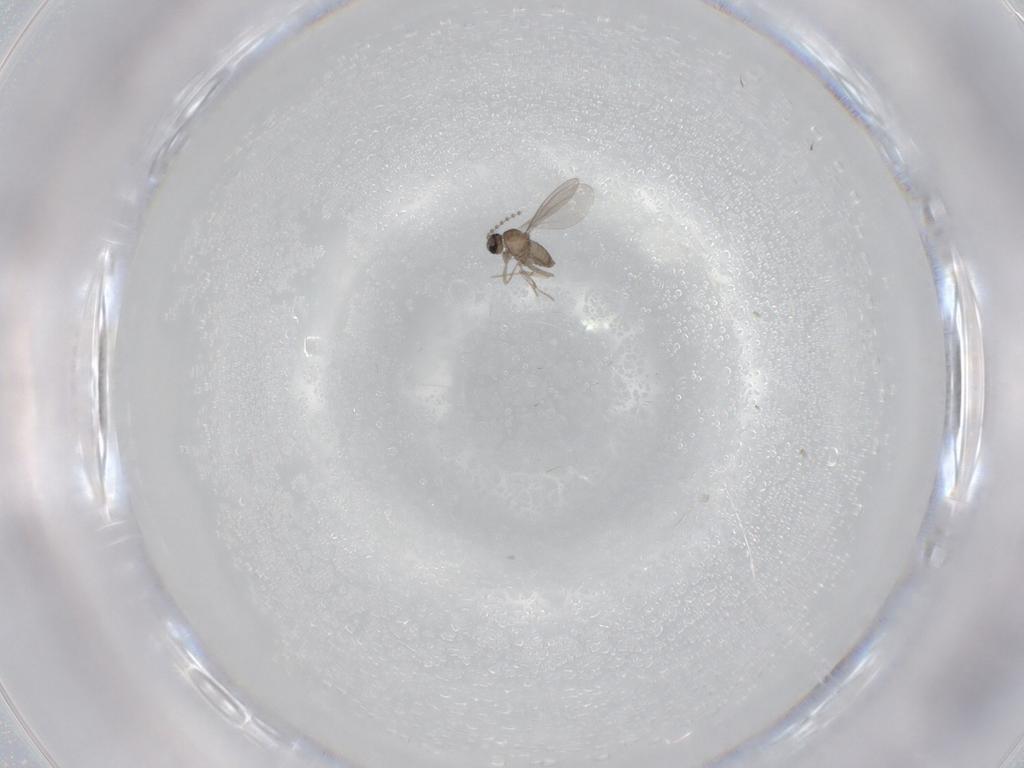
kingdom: Animalia
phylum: Arthropoda
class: Insecta
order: Diptera
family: Cecidomyiidae
